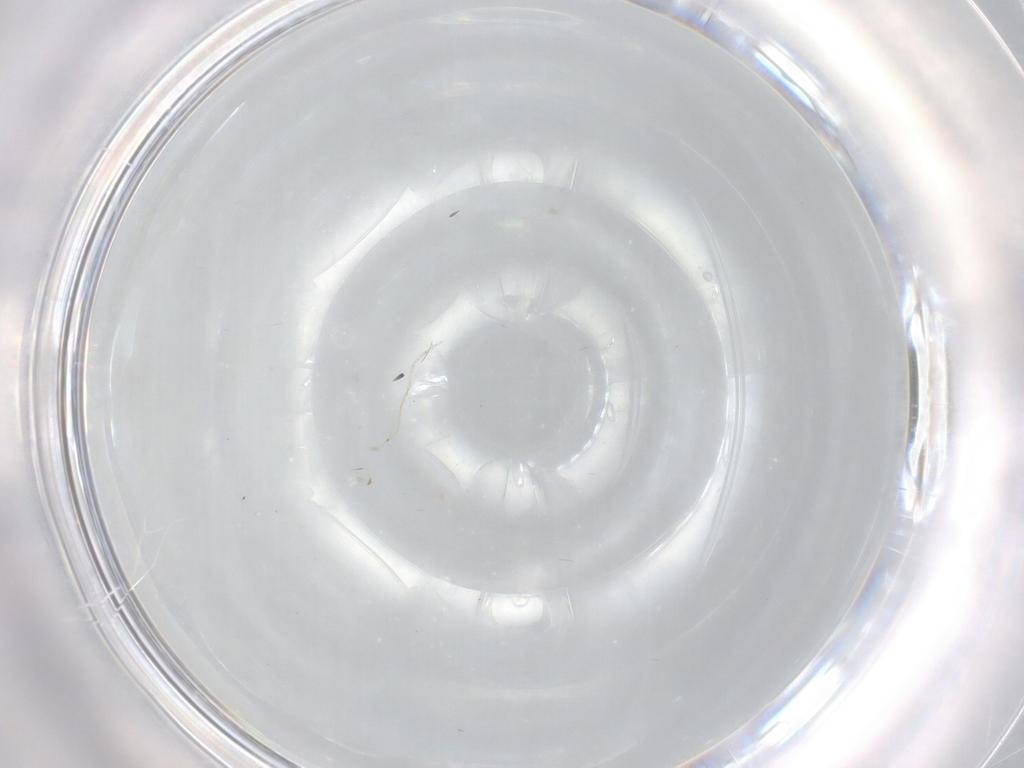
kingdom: Animalia
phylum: Arthropoda
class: Insecta
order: Diptera
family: Cecidomyiidae
